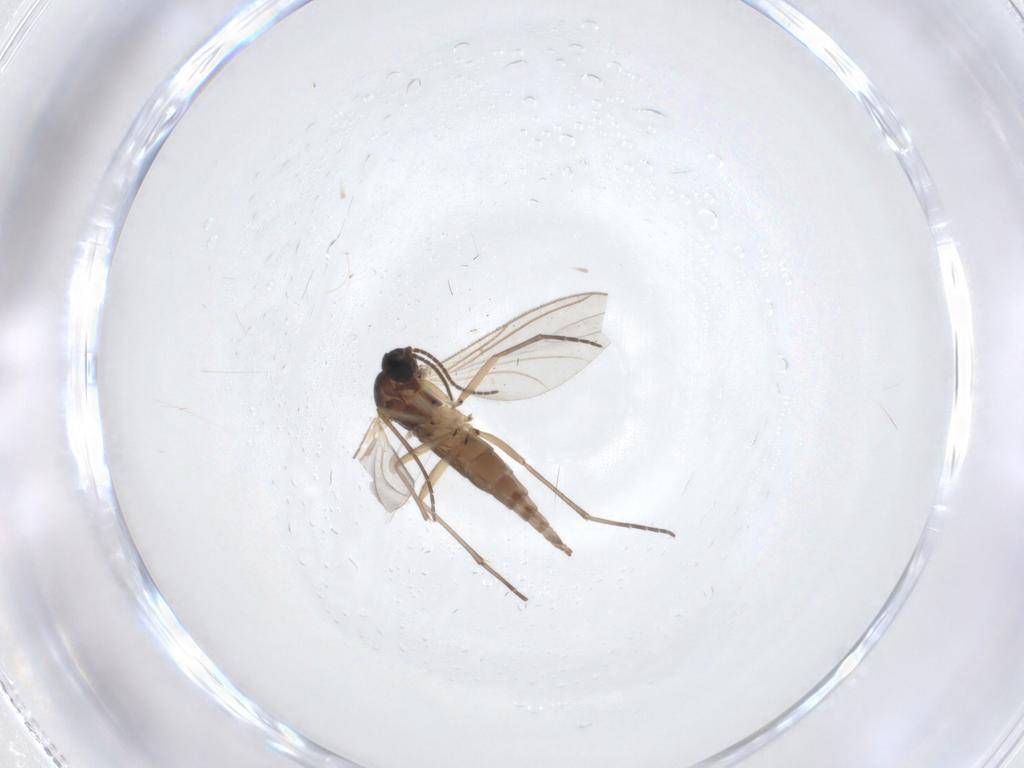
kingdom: Animalia
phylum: Arthropoda
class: Insecta
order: Diptera
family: Sciaridae
